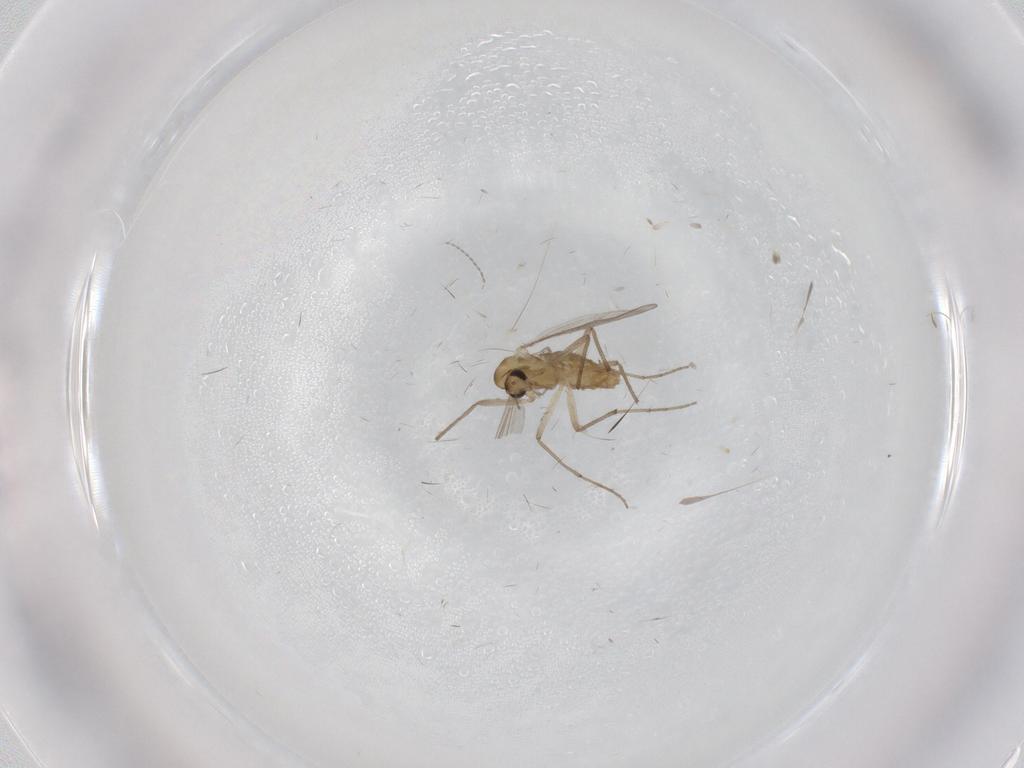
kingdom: Animalia
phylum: Arthropoda
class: Insecta
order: Diptera
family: Chironomidae
